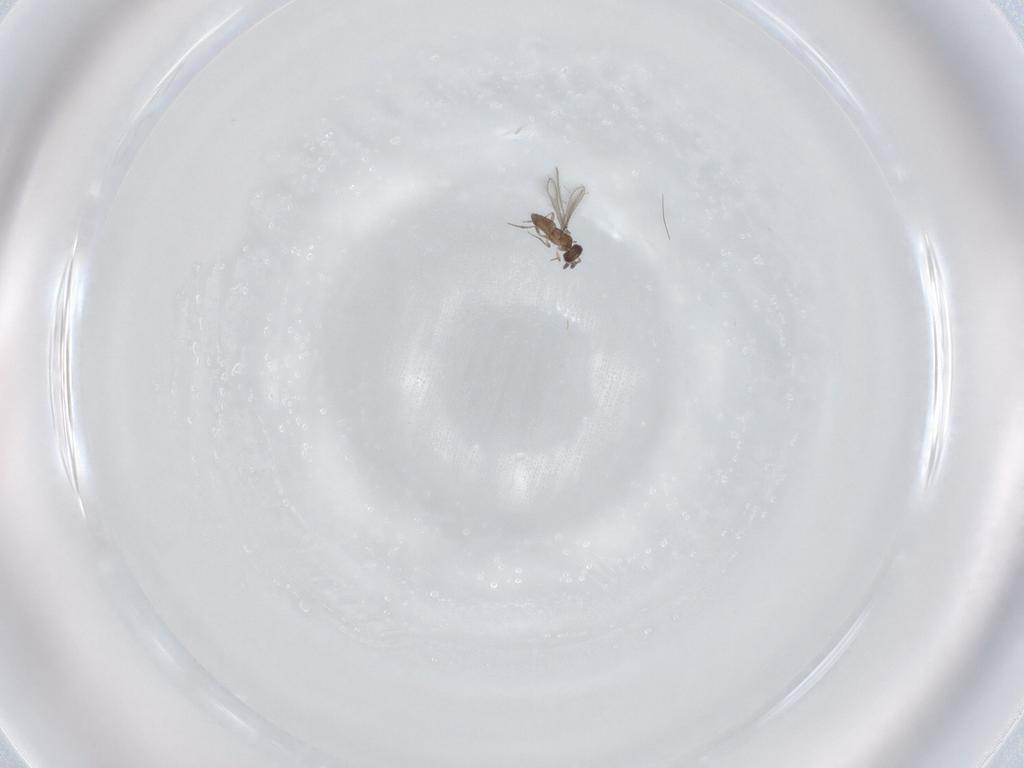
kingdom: Animalia
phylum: Arthropoda
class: Insecta
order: Hymenoptera
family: Mymaridae
